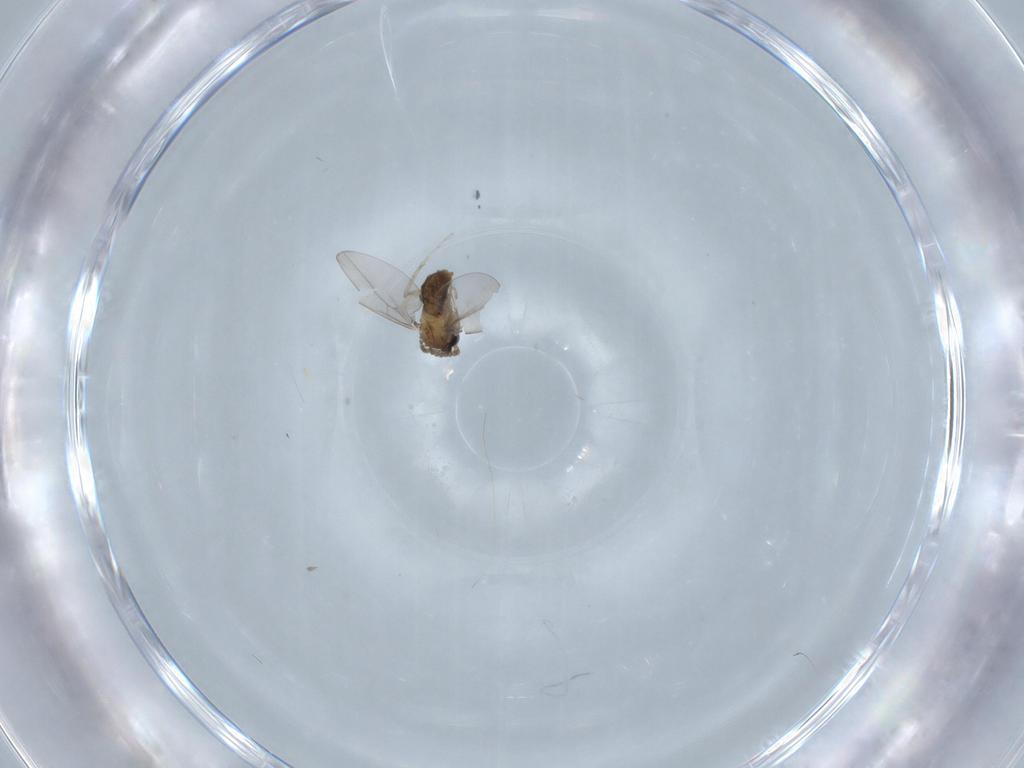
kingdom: Animalia
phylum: Arthropoda
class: Insecta
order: Diptera
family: Cecidomyiidae
